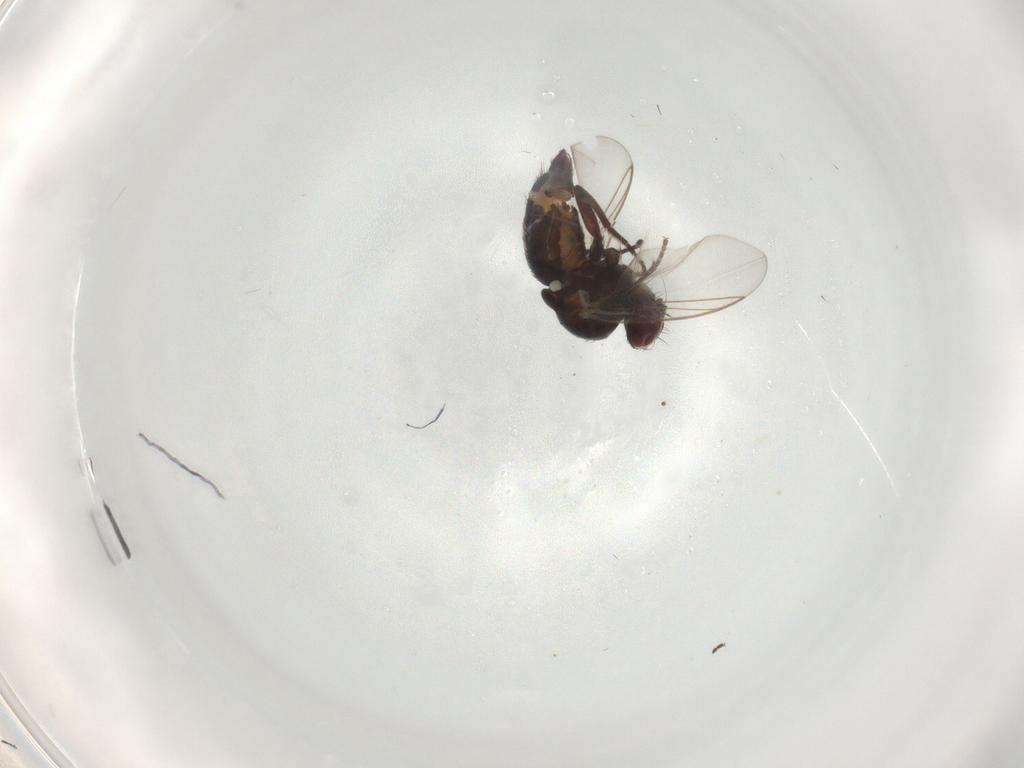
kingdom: Animalia
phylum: Arthropoda
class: Insecta
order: Diptera
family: Agromyzidae
